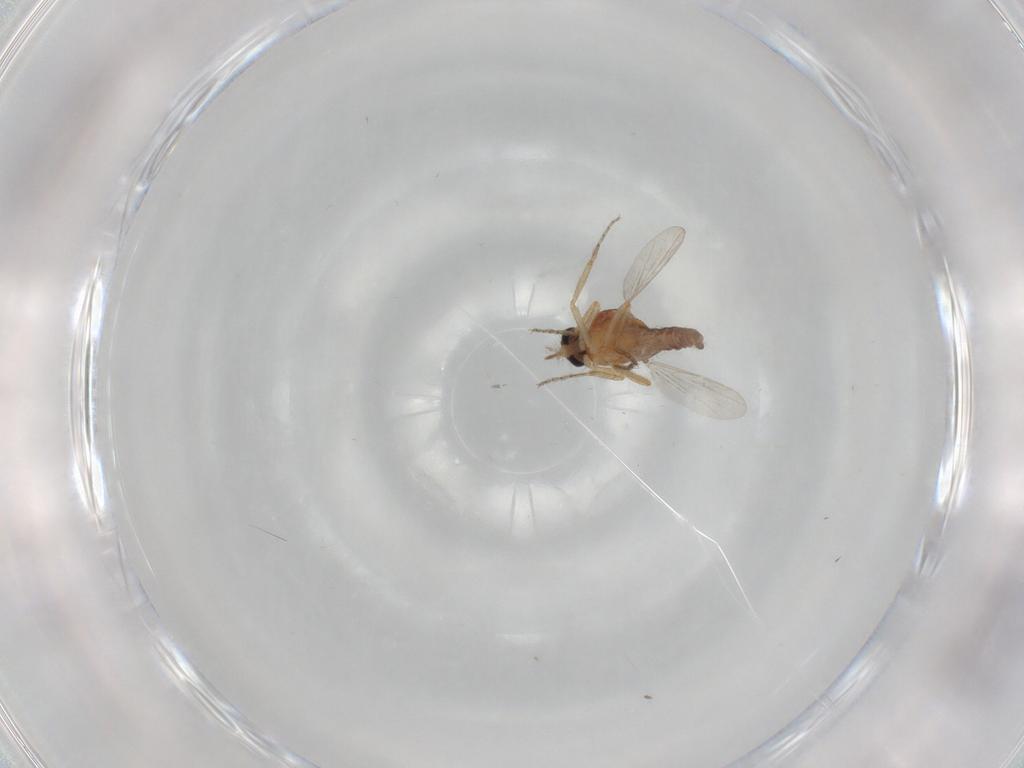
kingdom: Animalia
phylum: Arthropoda
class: Insecta
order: Diptera
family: Ceratopogonidae
